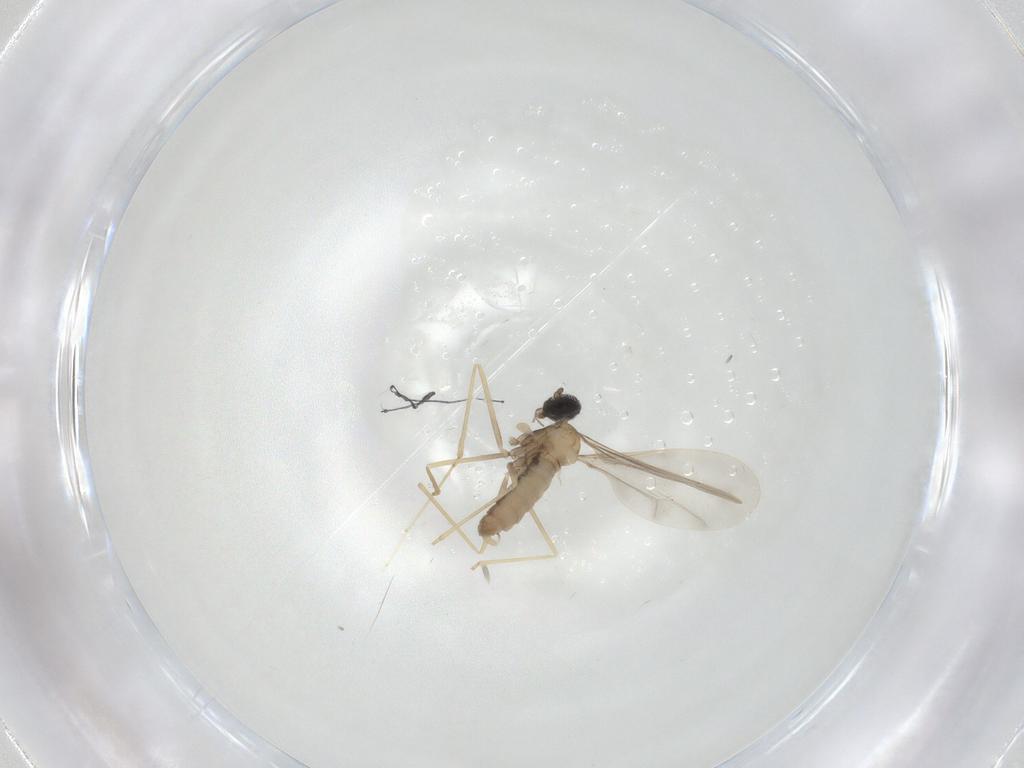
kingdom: Animalia
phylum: Arthropoda
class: Insecta
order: Diptera
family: Cecidomyiidae
